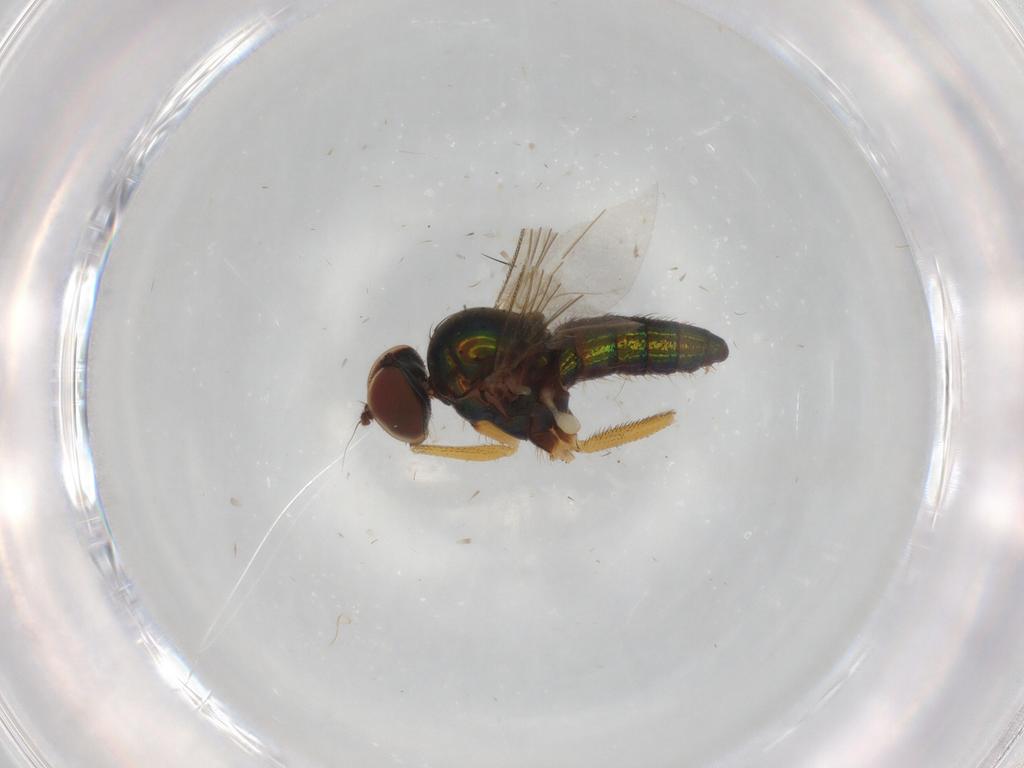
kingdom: Animalia
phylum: Arthropoda
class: Insecta
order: Diptera
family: Dolichopodidae
